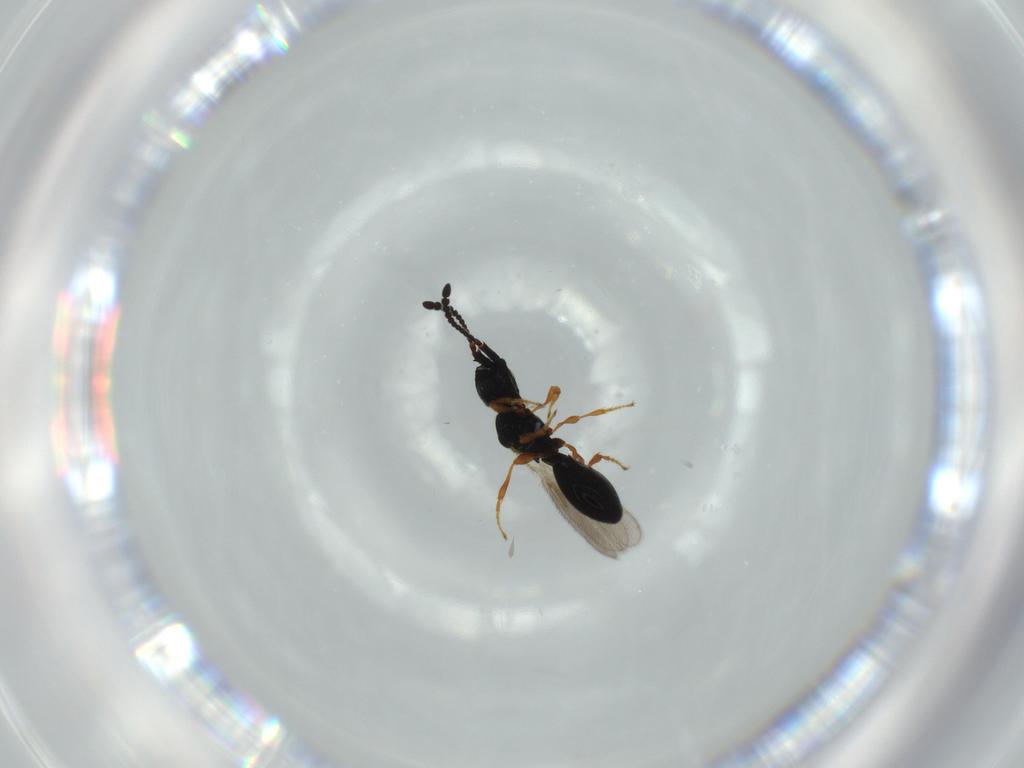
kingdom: Animalia
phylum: Arthropoda
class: Insecta
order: Hymenoptera
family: Diapriidae
